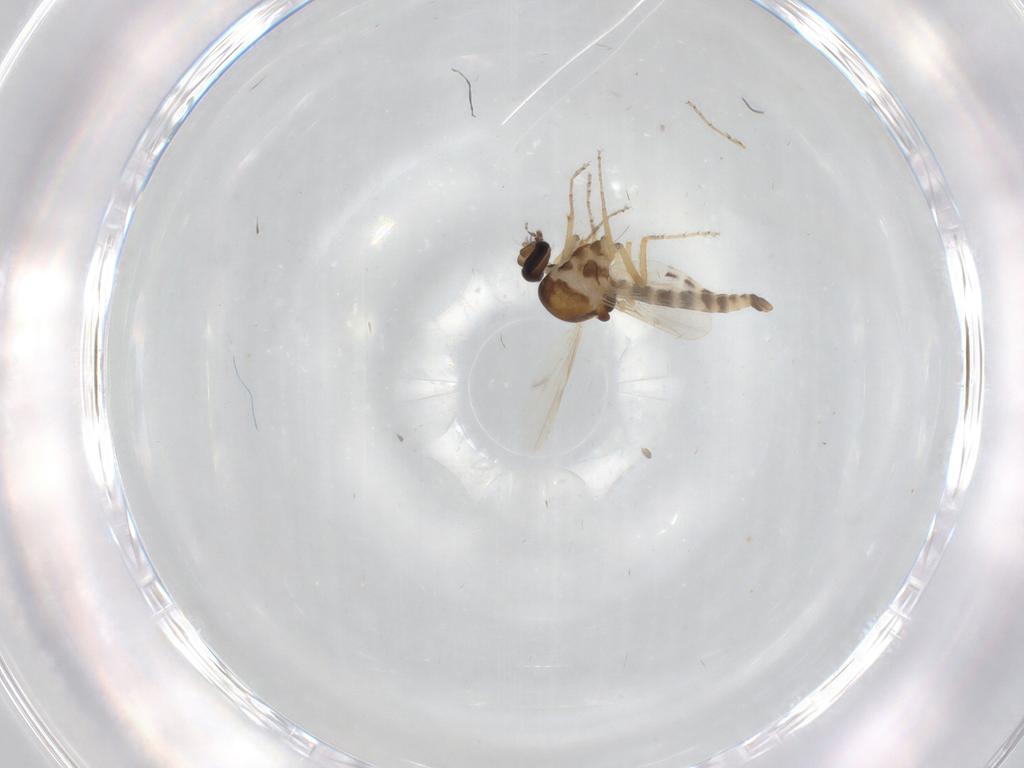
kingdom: Animalia
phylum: Arthropoda
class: Insecta
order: Diptera
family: Ceratopogonidae
